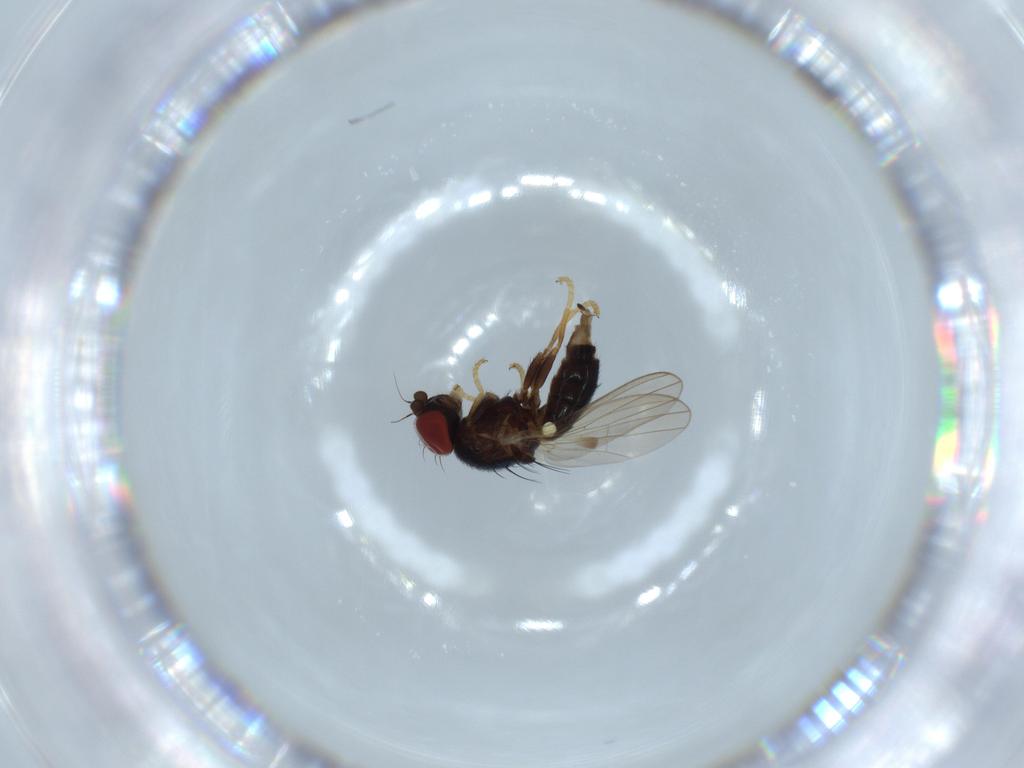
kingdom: Animalia
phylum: Arthropoda
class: Insecta
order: Diptera
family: Chamaemyiidae
